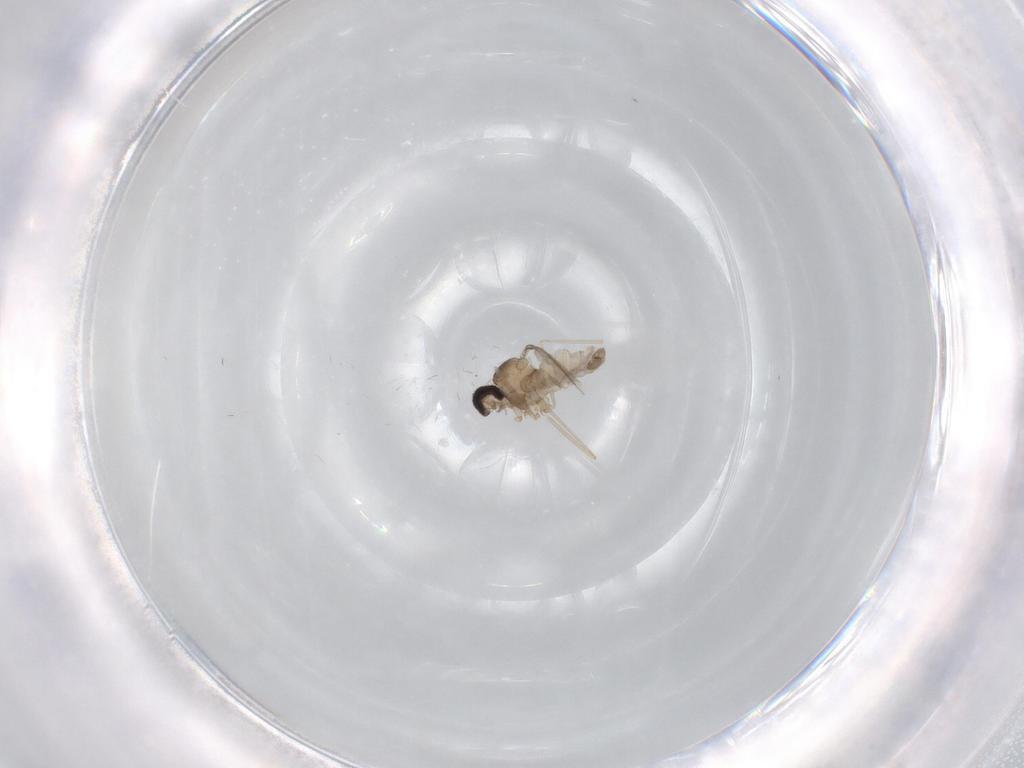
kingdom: Animalia
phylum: Arthropoda
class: Insecta
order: Diptera
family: Cecidomyiidae
